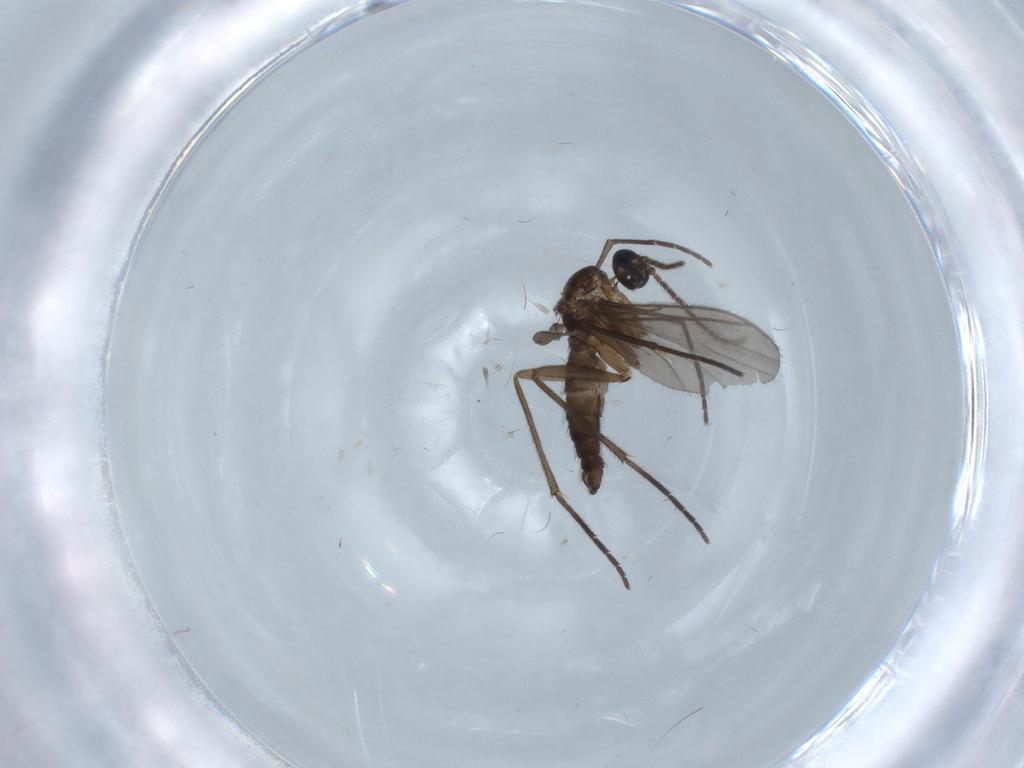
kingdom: Animalia
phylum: Arthropoda
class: Insecta
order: Diptera
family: Sciaridae
